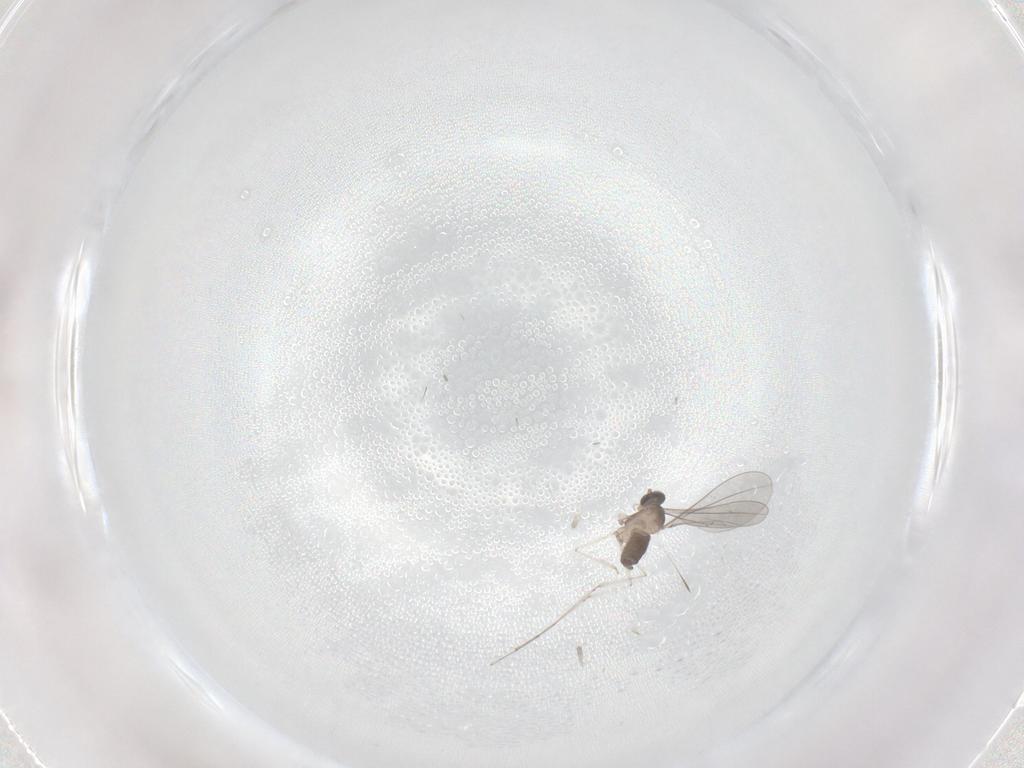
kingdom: Animalia
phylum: Arthropoda
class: Insecta
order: Diptera
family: Cecidomyiidae
